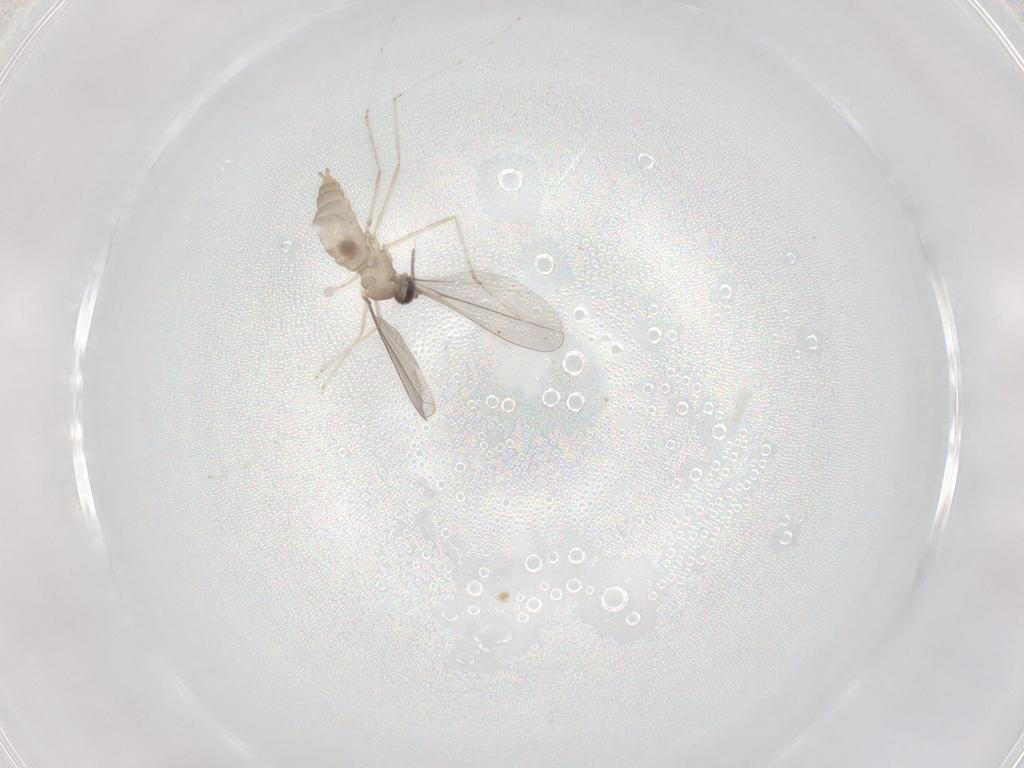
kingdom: Animalia
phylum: Arthropoda
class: Insecta
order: Diptera
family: Cecidomyiidae
